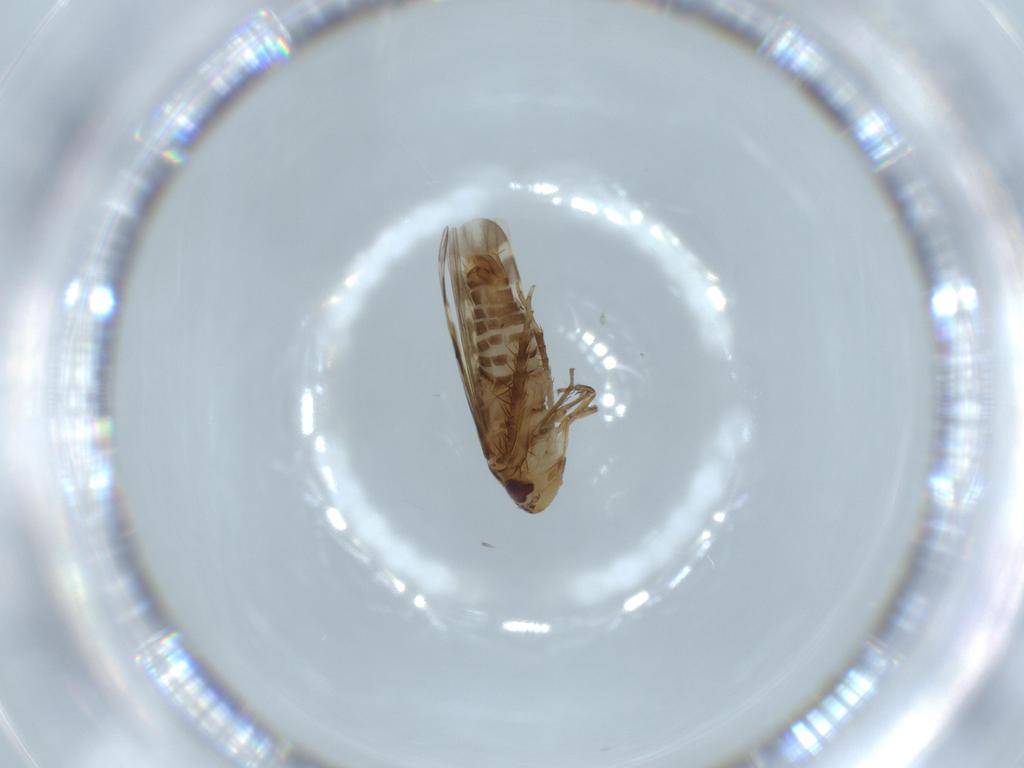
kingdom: Animalia
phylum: Arthropoda
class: Insecta
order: Hemiptera
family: Cicadellidae
